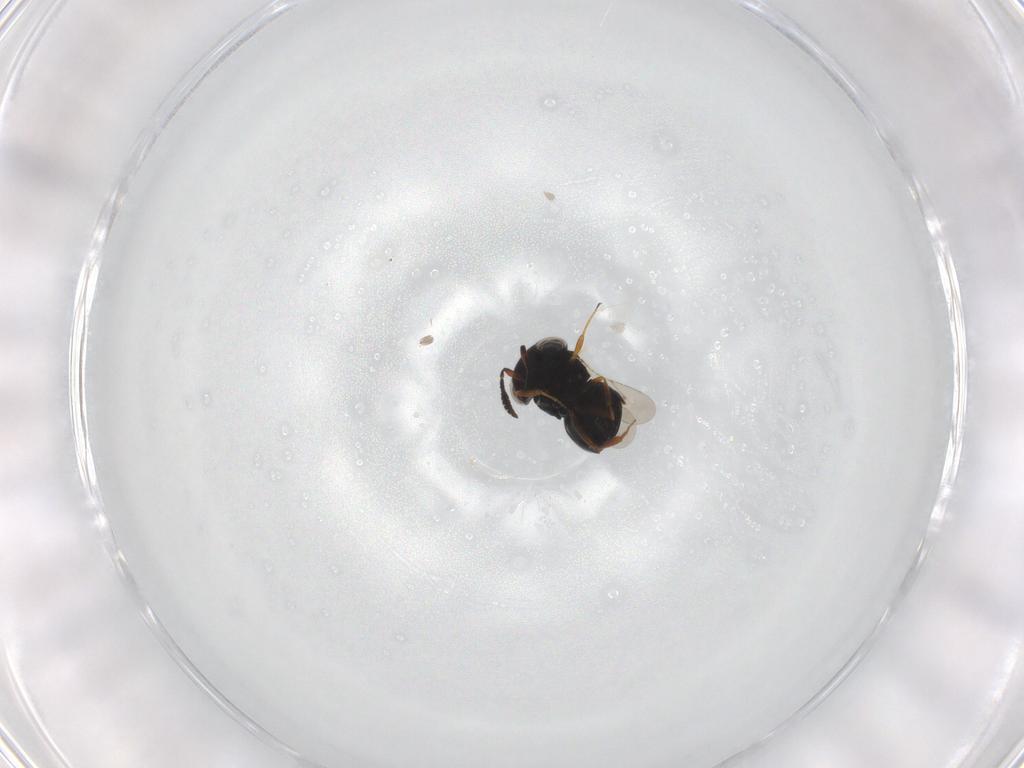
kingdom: Animalia
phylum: Arthropoda
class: Insecta
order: Hymenoptera
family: Scelionidae
